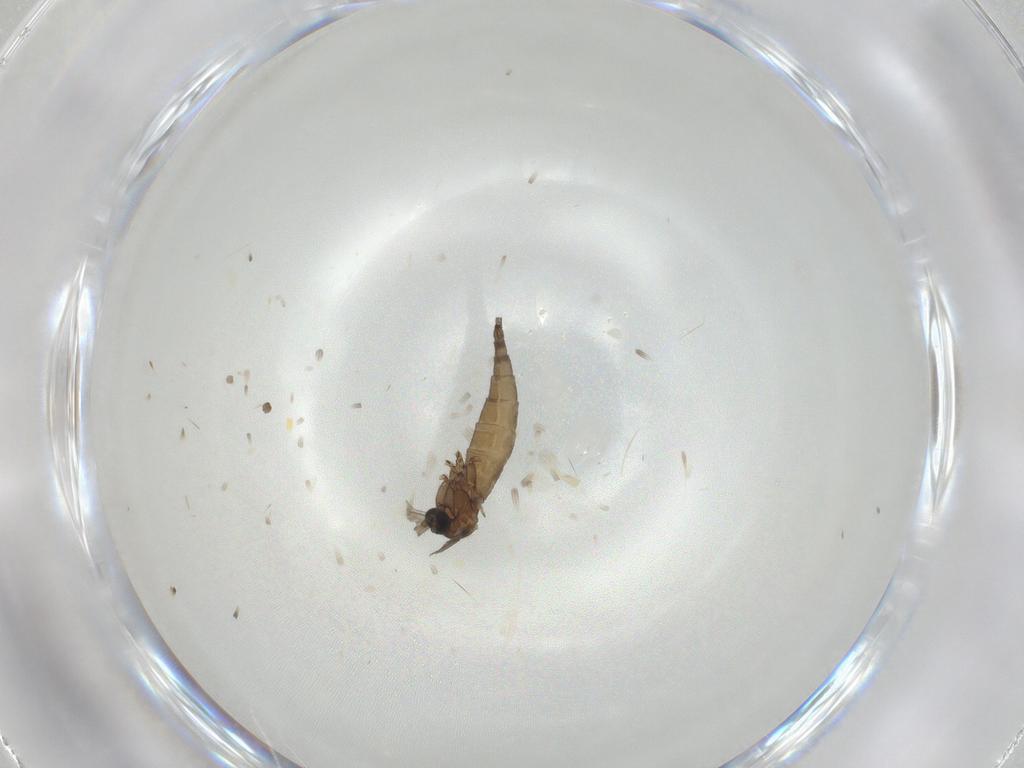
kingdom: Animalia
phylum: Arthropoda
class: Insecta
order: Diptera
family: Sciaridae
